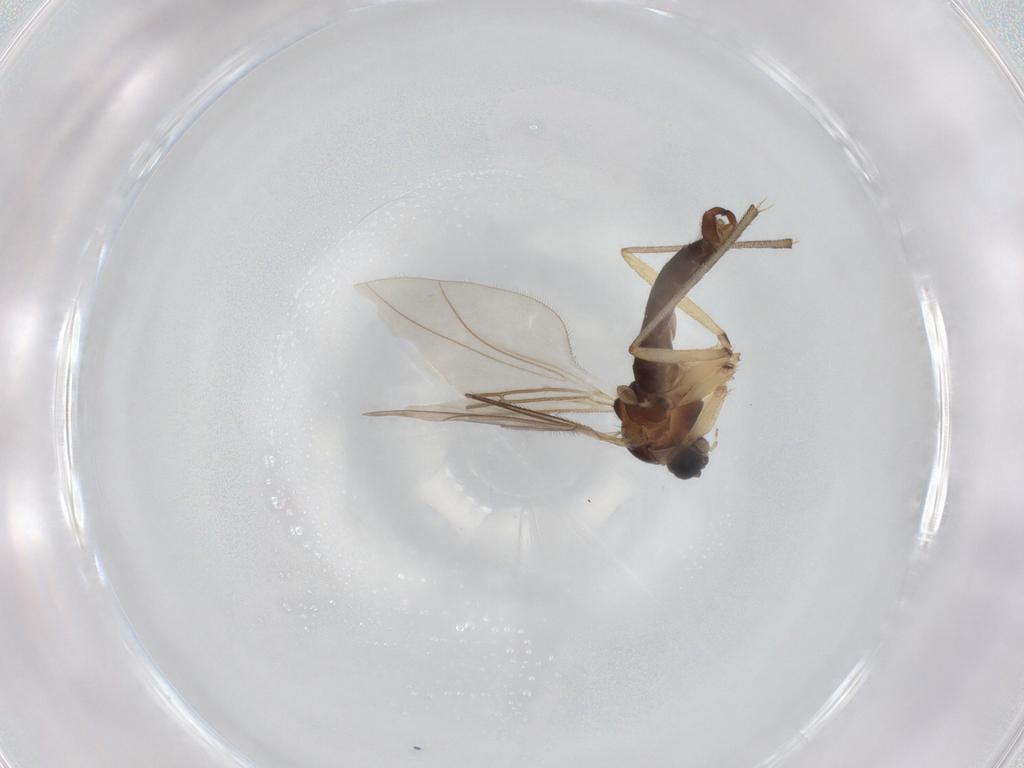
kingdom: Animalia
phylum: Arthropoda
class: Insecta
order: Diptera
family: Sciaridae
